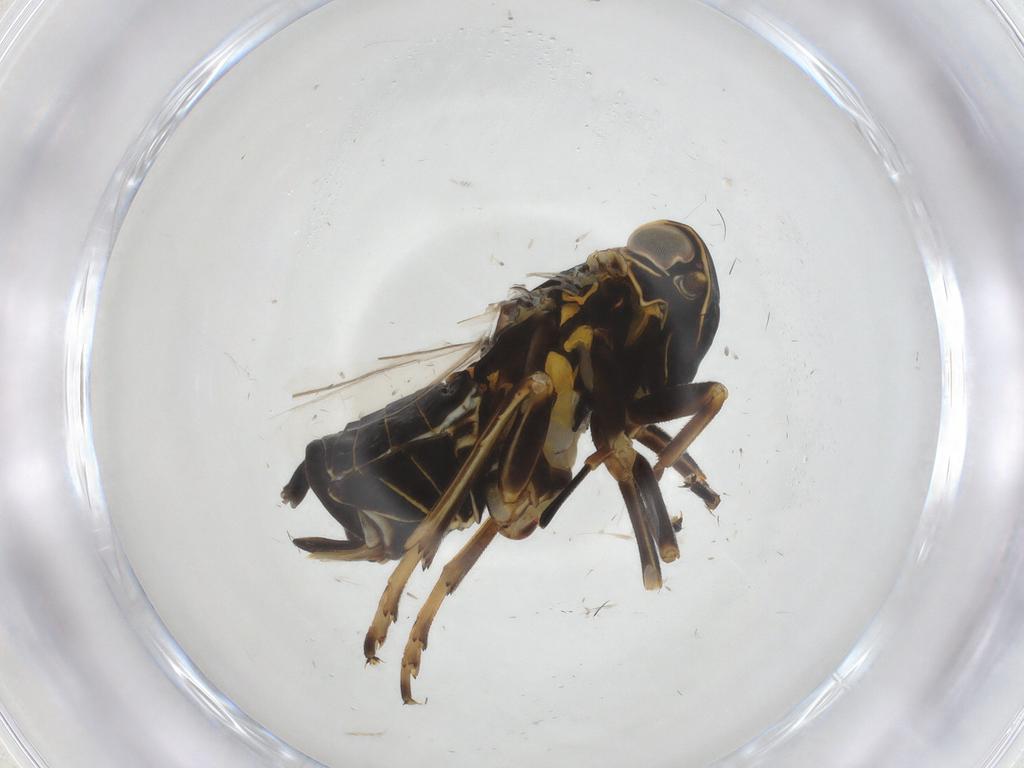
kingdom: Animalia
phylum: Arthropoda
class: Insecta
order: Hemiptera
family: Cixiidae
